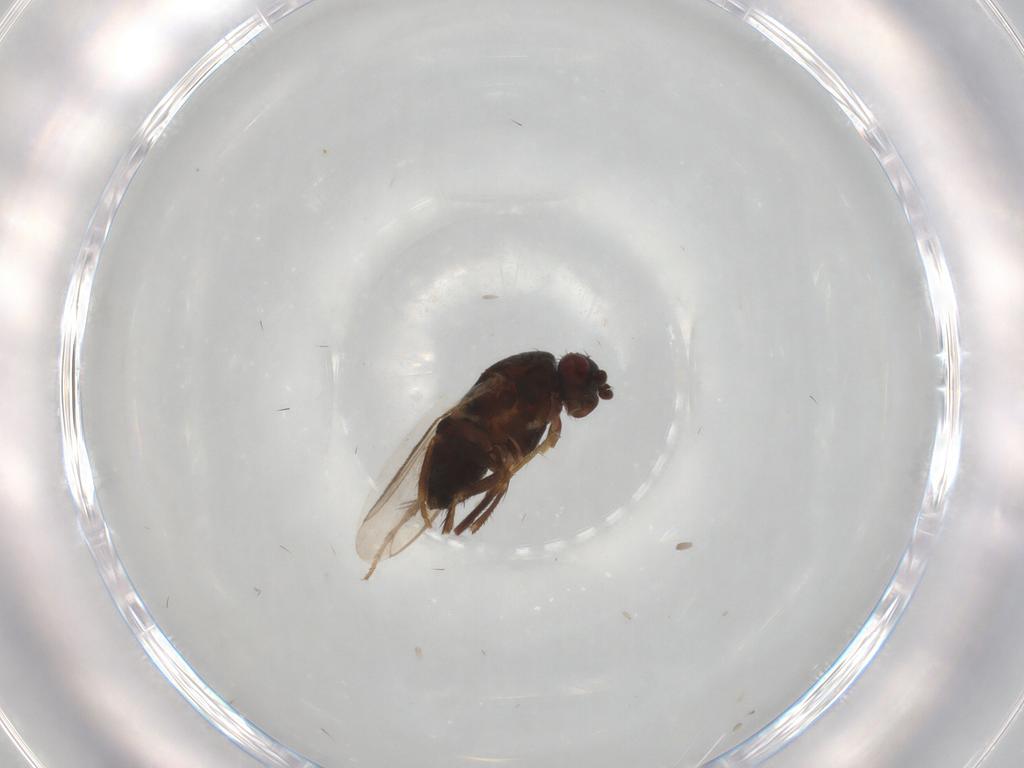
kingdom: Animalia
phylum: Arthropoda
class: Insecta
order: Diptera
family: Sphaeroceridae
